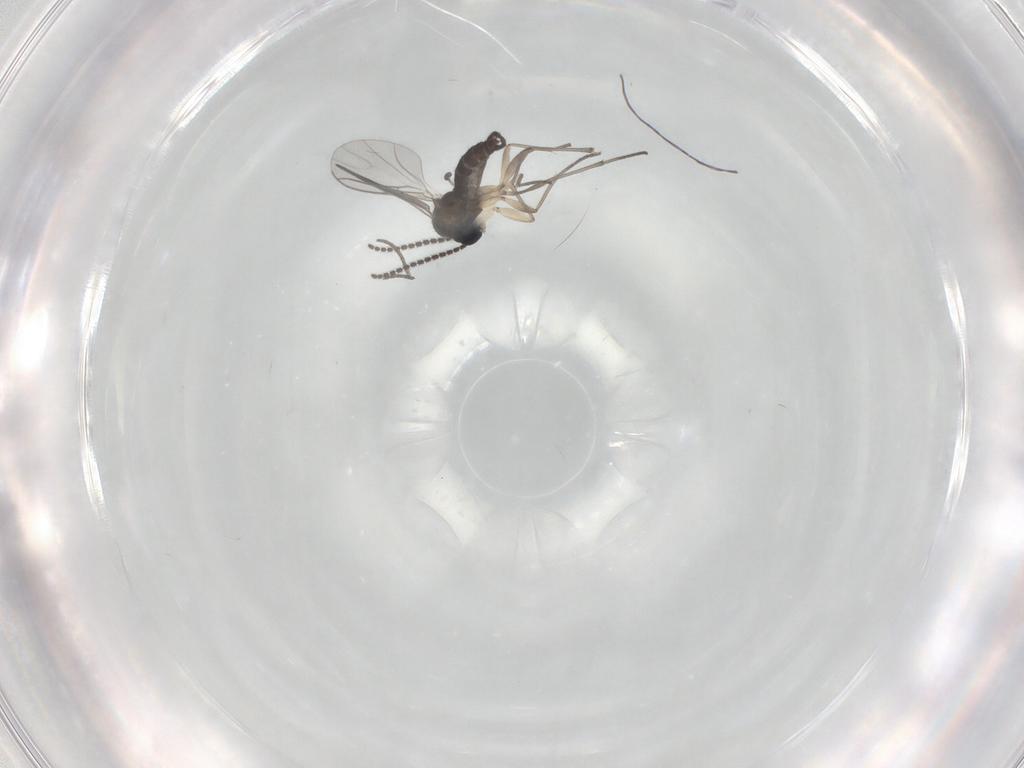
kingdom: Animalia
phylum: Arthropoda
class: Insecta
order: Diptera
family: Sciaridae
